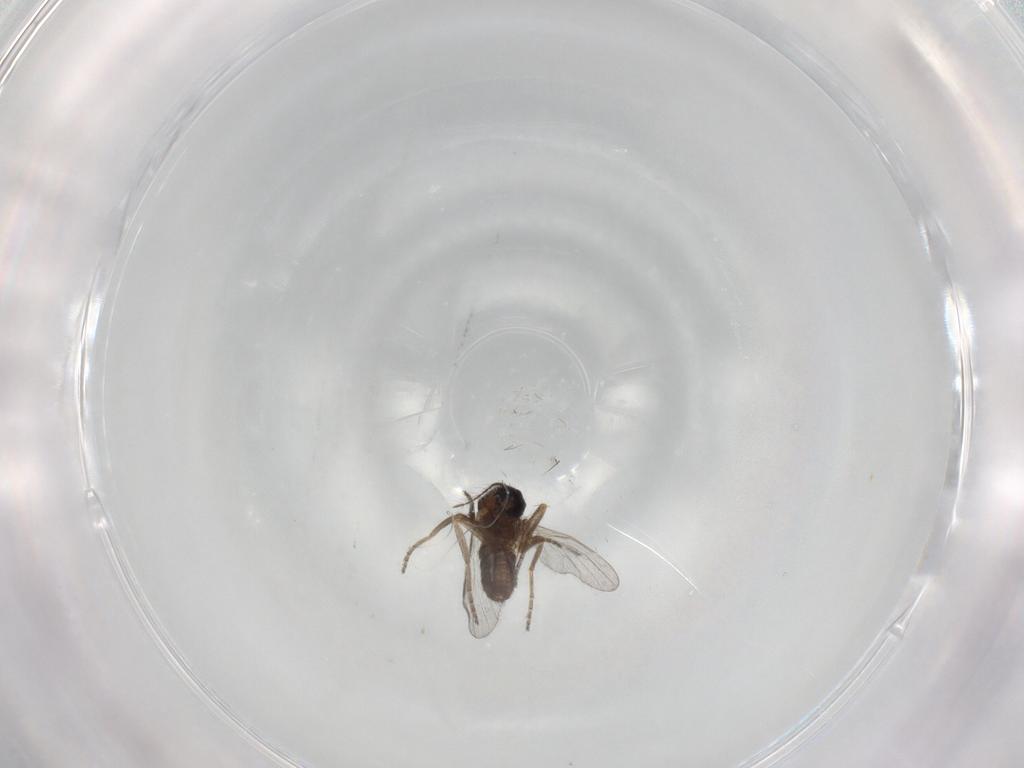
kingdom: Animalia
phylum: Arthropoda
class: Insecta
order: Diptera
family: Ceratopogonidae
